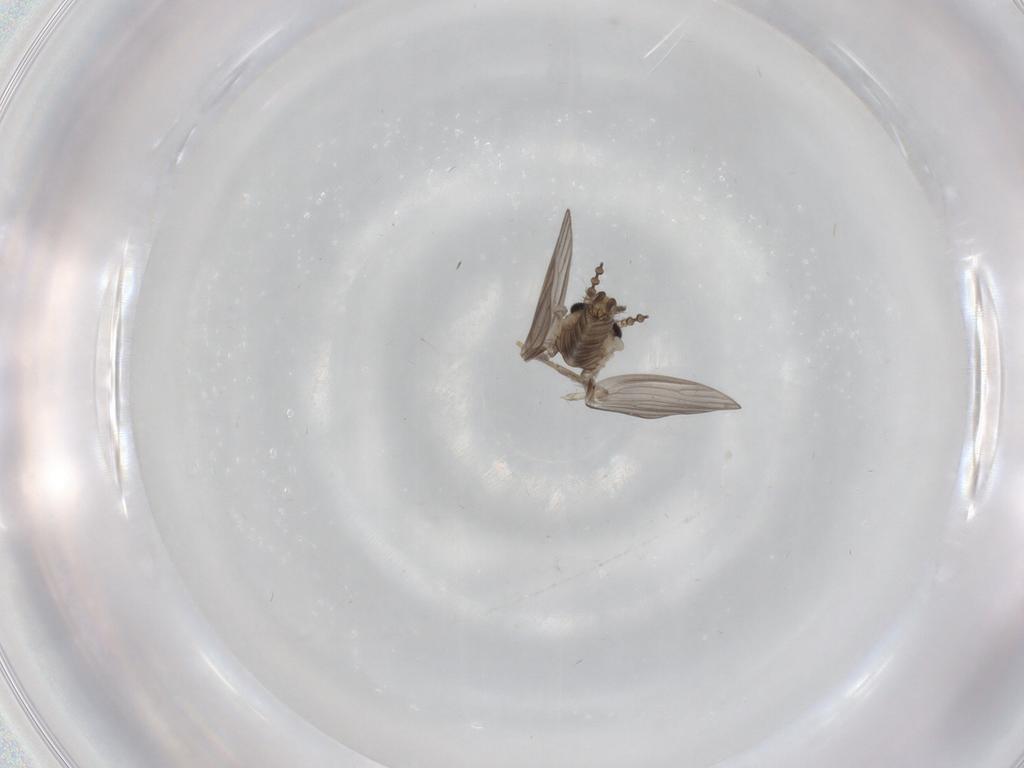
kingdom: Animalia
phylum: Arthropoda
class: Insecta
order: Diptera
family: Psychodidae
